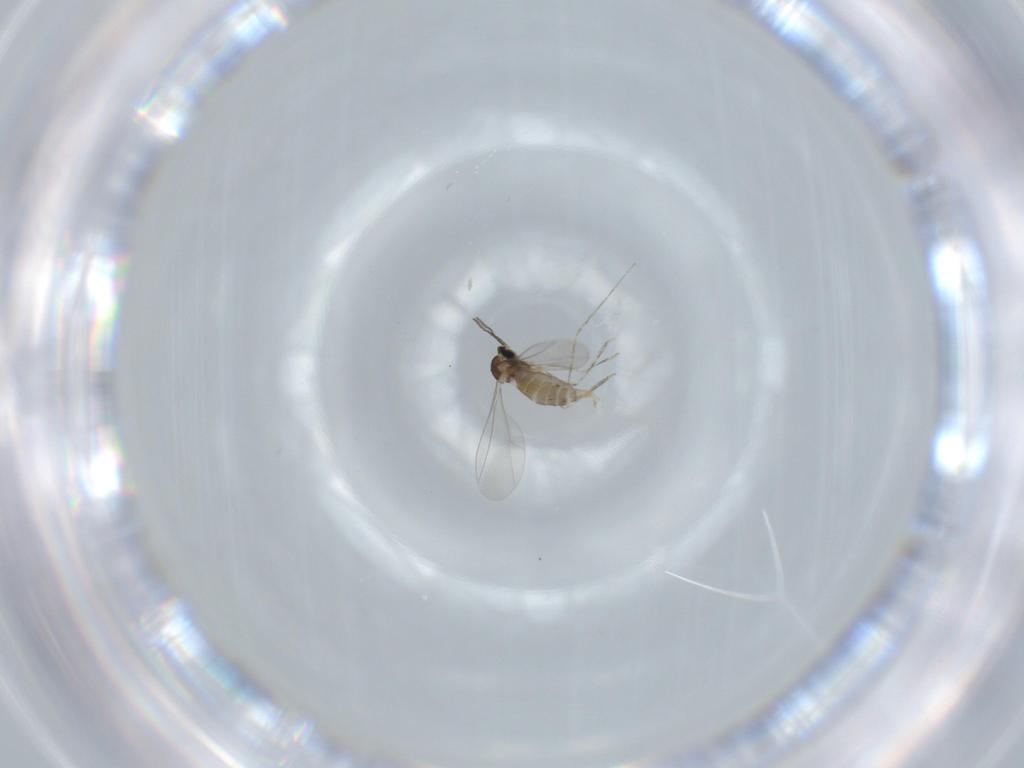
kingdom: Animalia
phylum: Arthropoda
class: Insecta
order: Diptera
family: Cecidomyiidae
